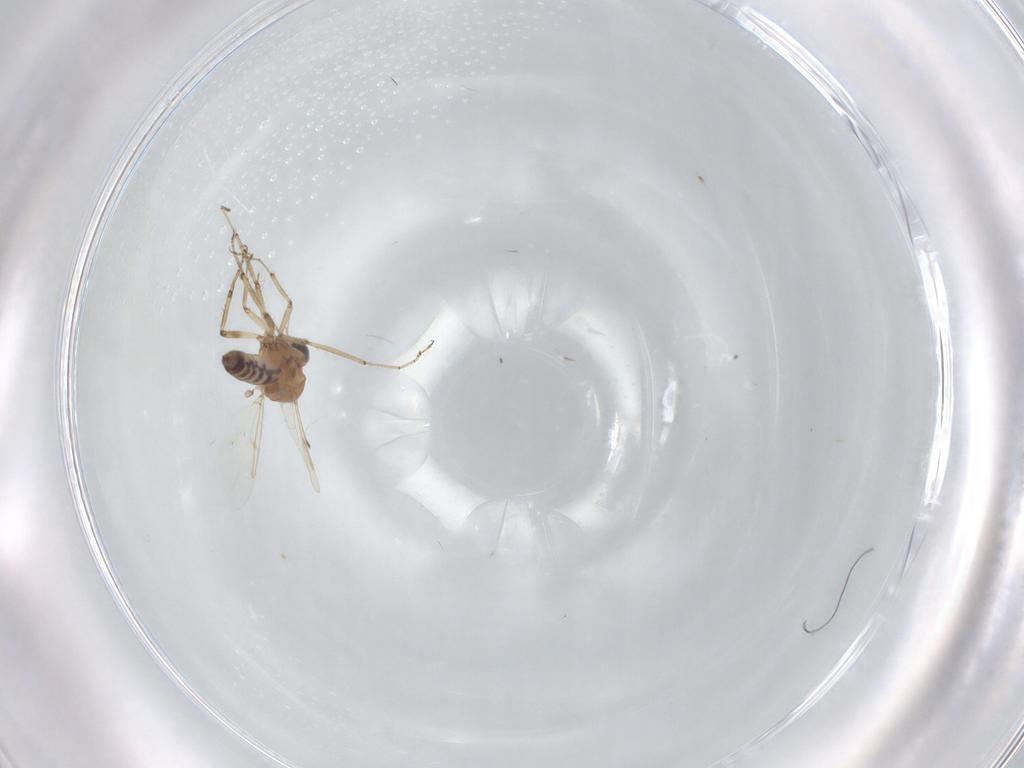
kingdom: Animalia
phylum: Arthropoda
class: Insecta
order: Diptera
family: Ceratopogonidae
